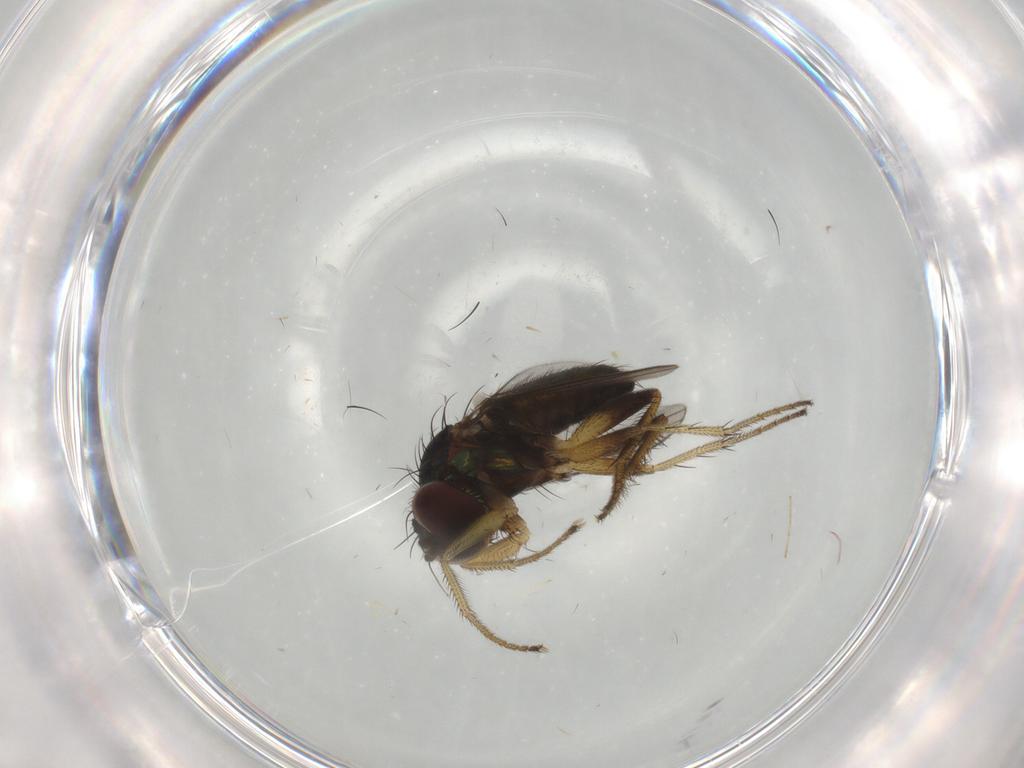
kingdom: Animalia
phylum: Arthropoda
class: Insecta
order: Diptera
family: Dolichopodidae
